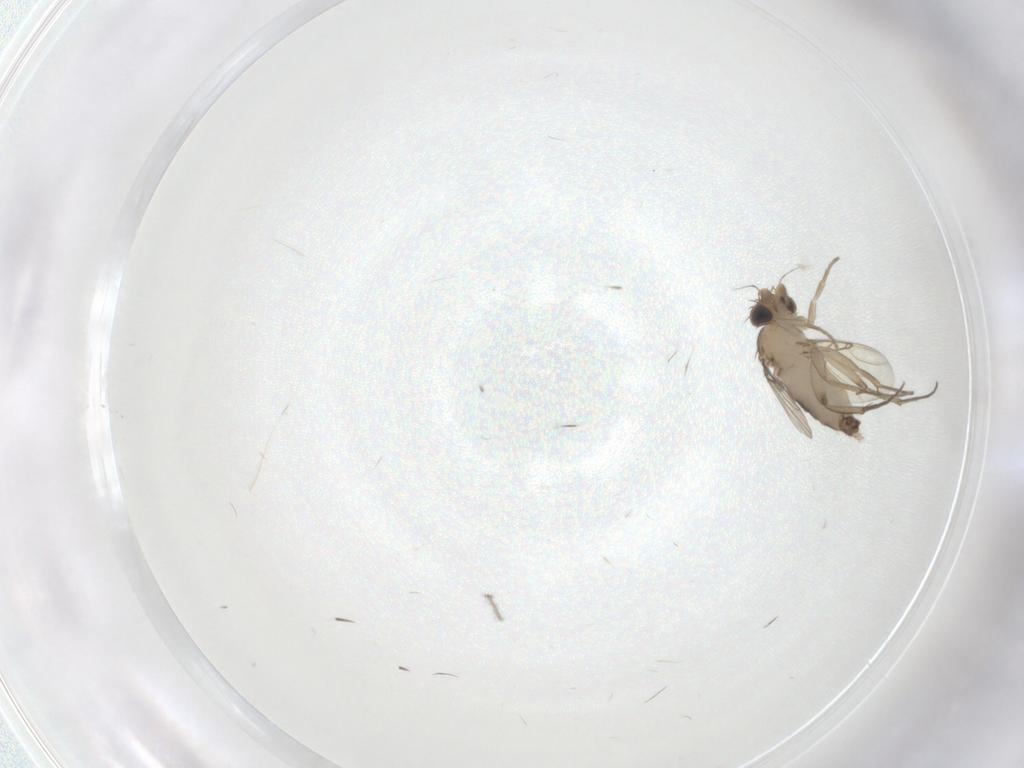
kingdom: Animalia
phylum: Arthropoda
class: Insecta
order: Diptera
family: Phoridae
